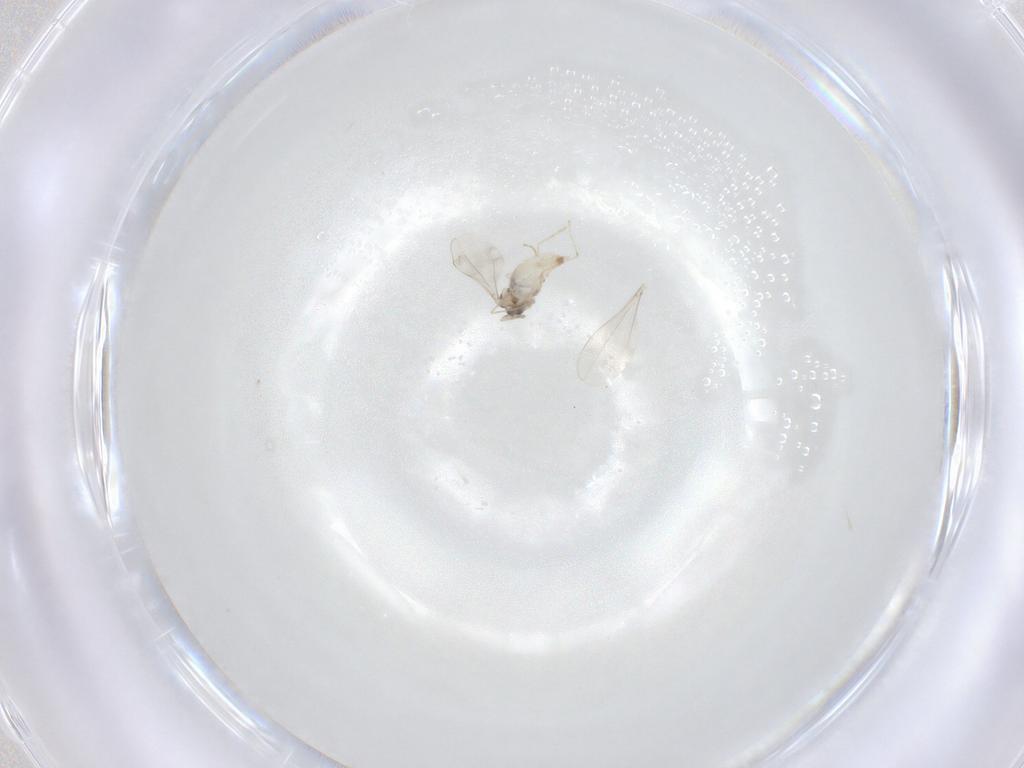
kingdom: Animalia
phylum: Arthropoda
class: Insecta
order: Diptera
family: Cecidomyiidae
